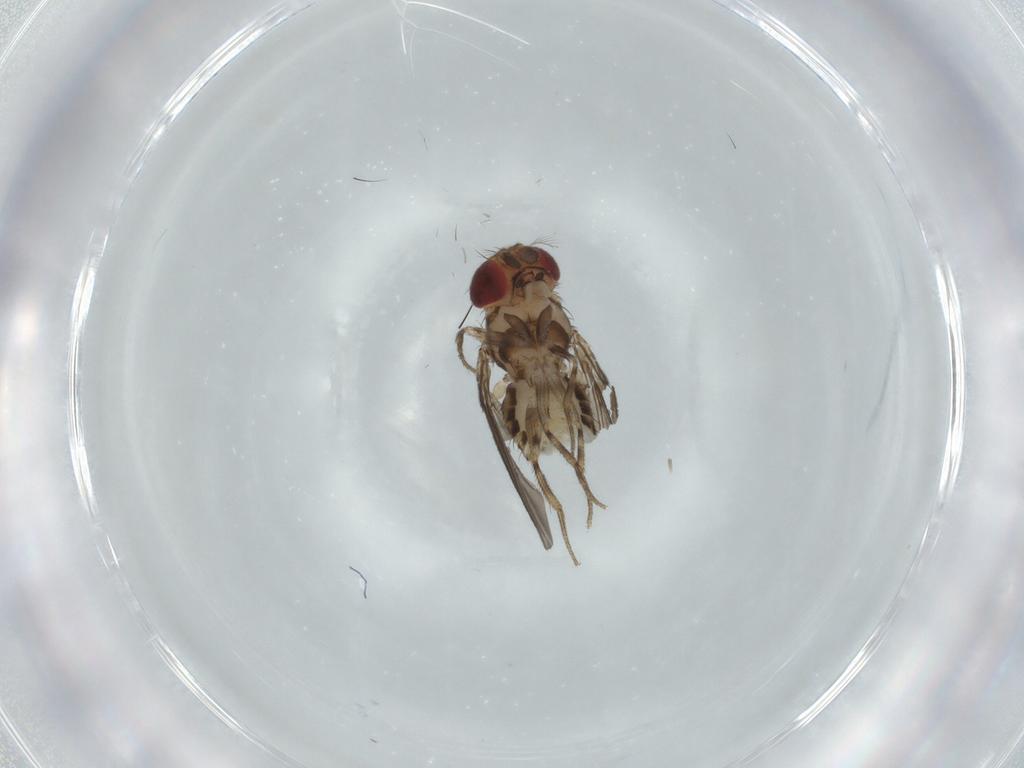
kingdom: Animalia
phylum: Arthropoda
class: Insecta
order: Diptera
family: Drosophilidae
